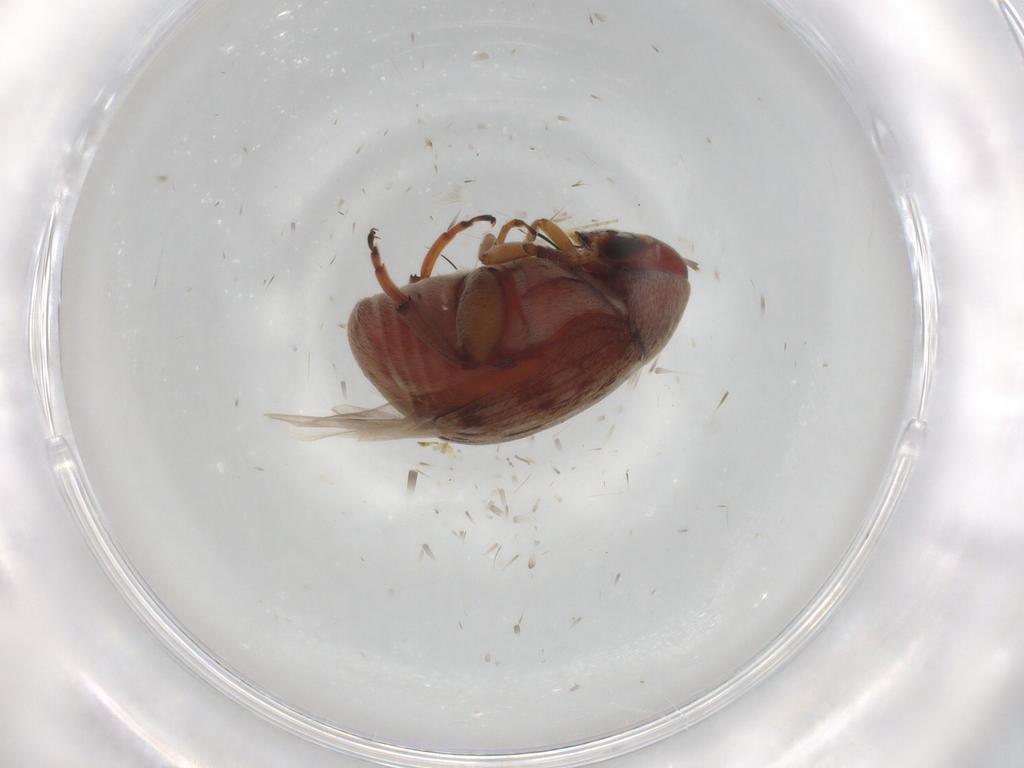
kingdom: Animalia
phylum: Arthropoda
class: Insecta
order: Coleoptera
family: Chrysomelidae
